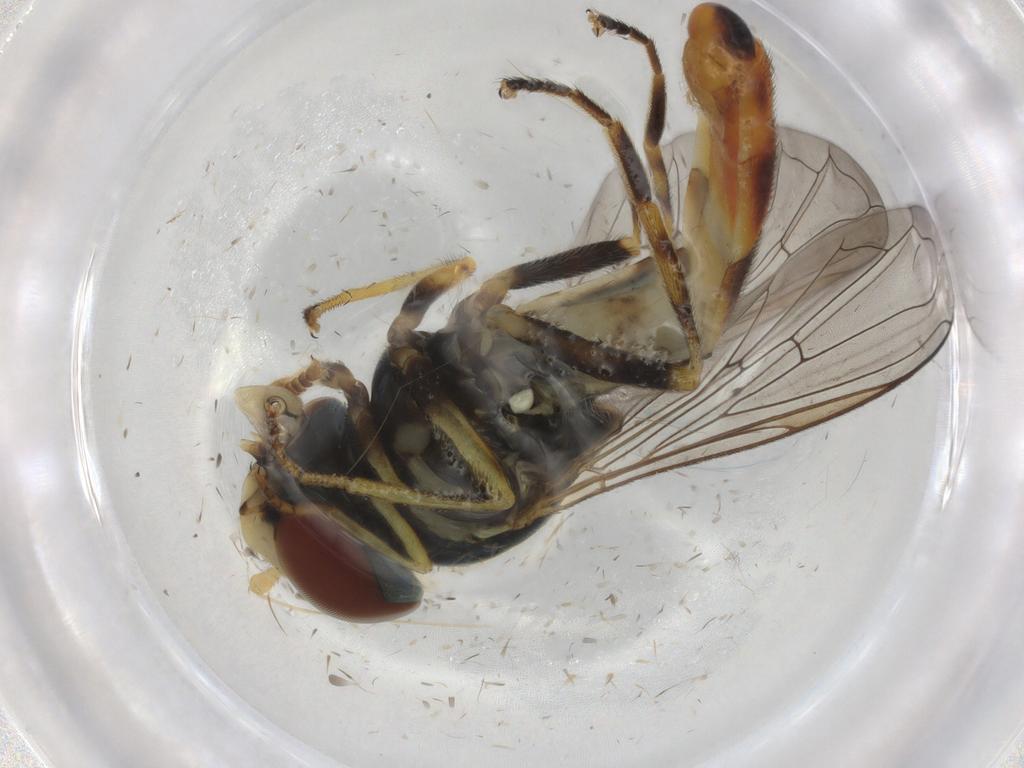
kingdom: Animalia
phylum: Arthropoda
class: Insecta
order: Diptera
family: Syrphidae
